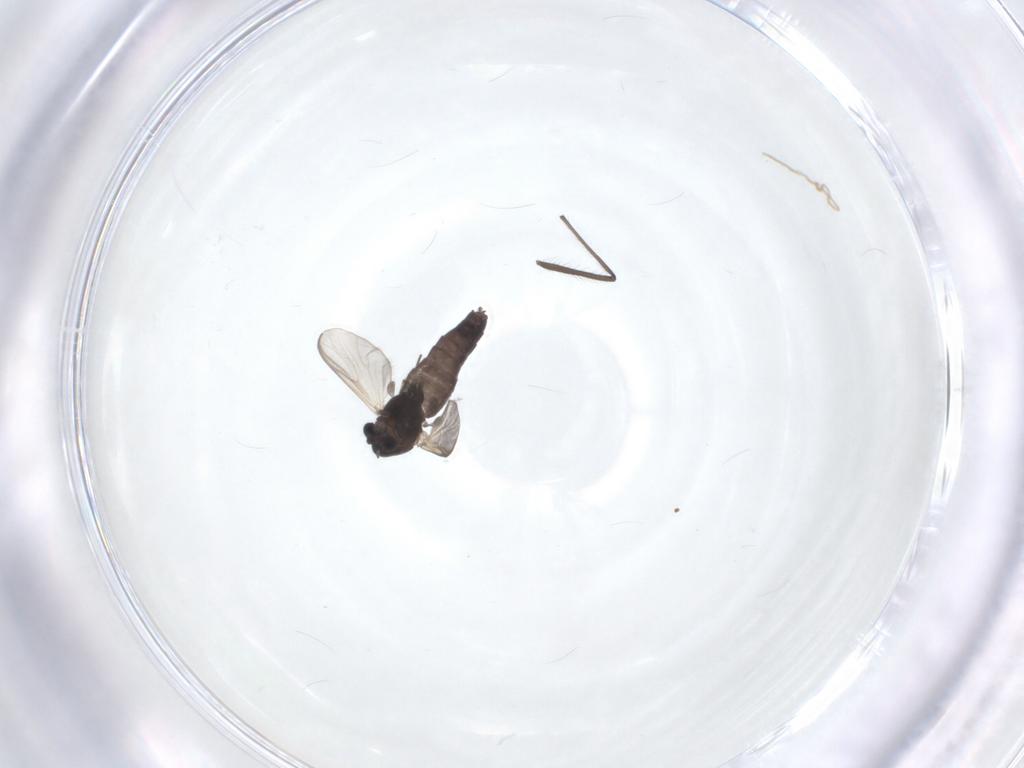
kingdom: Animalia
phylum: Arthropoda
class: Insecta
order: Diptera
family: Chironomidae
